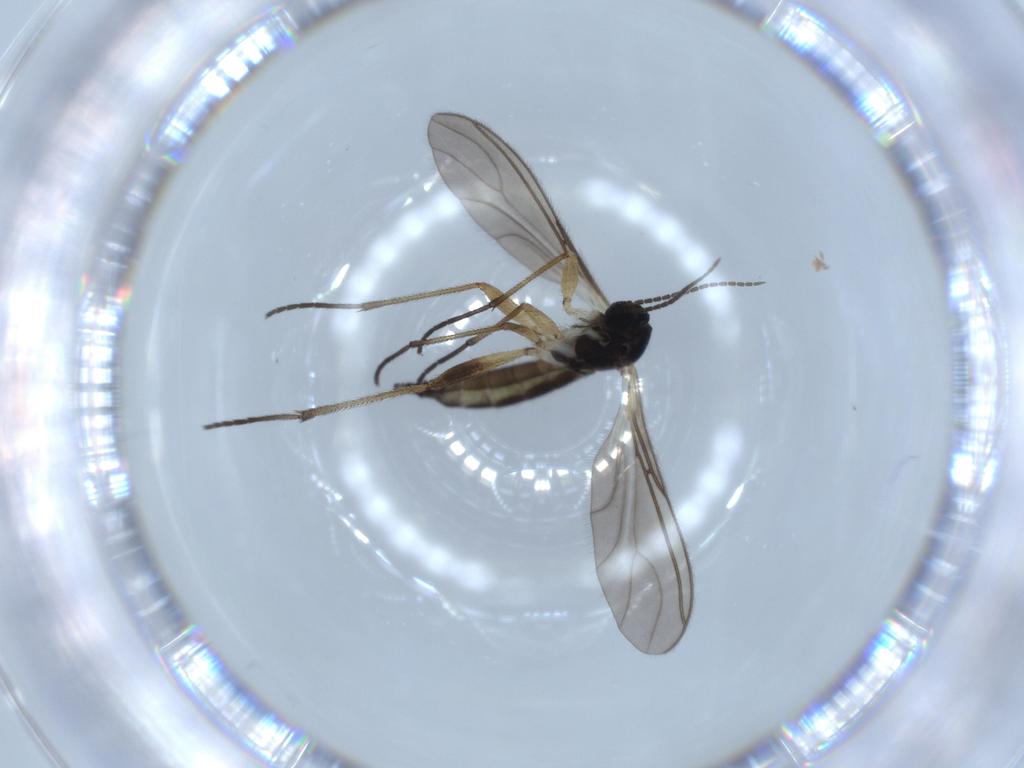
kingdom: Animalia
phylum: Arthropoda
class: Insecta
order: Diptera
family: Sciaridae
